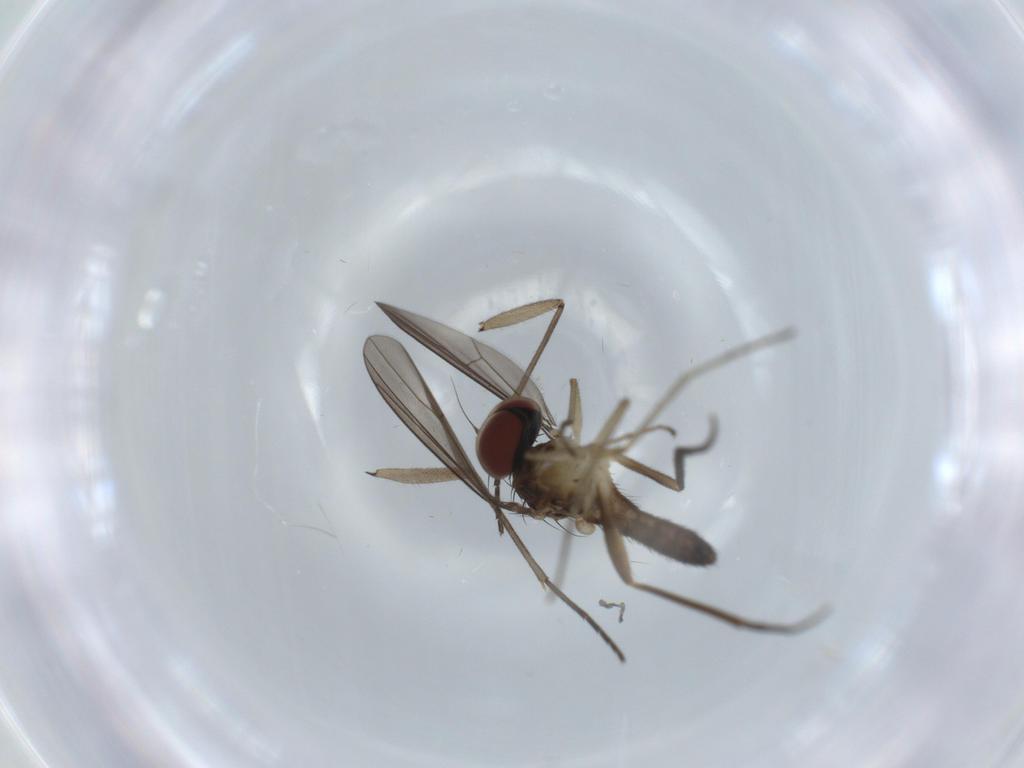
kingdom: Animalia
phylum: Arthropoda
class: Insecta
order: Diptera
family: Sciaridae
